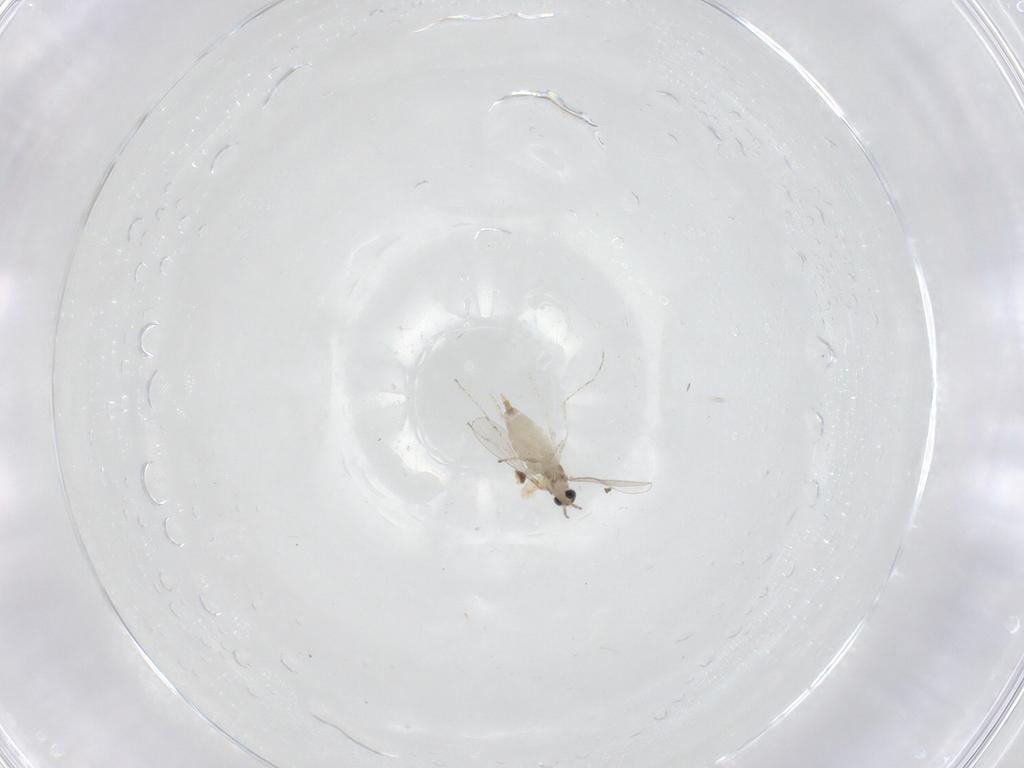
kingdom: Animalia
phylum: Arthropoda
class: Insecta
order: Diptera
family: Cecidomyiidae
